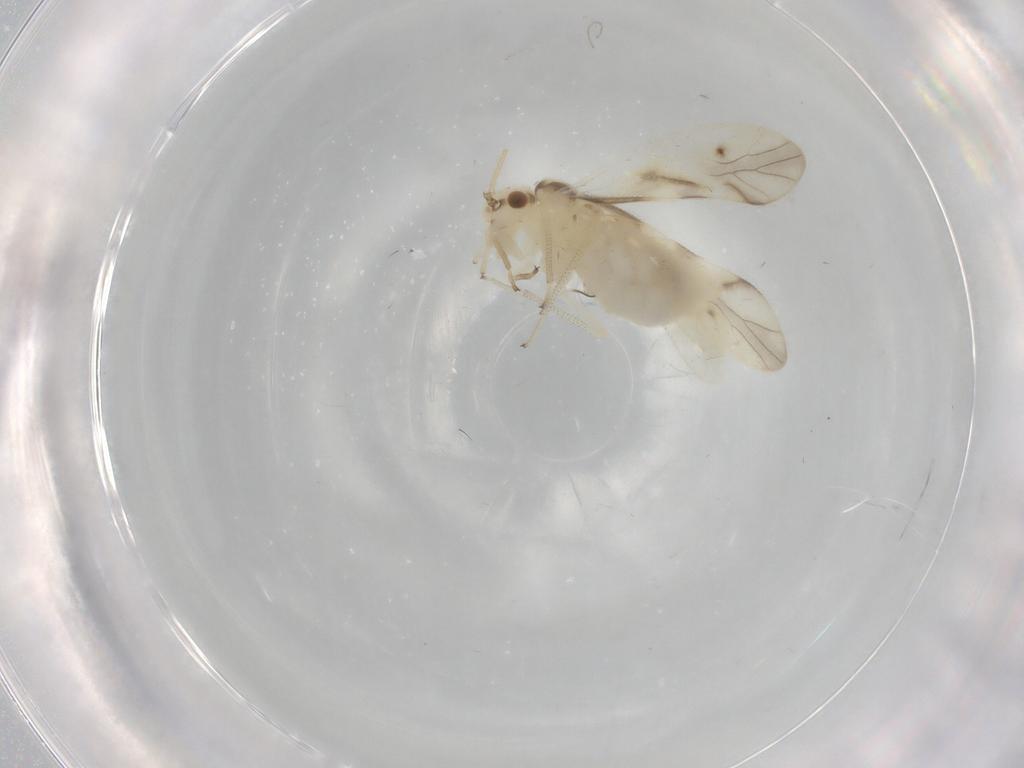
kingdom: Animalia
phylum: Arthropoda
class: Insecta
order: Psocodea
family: Caeciliusidae
